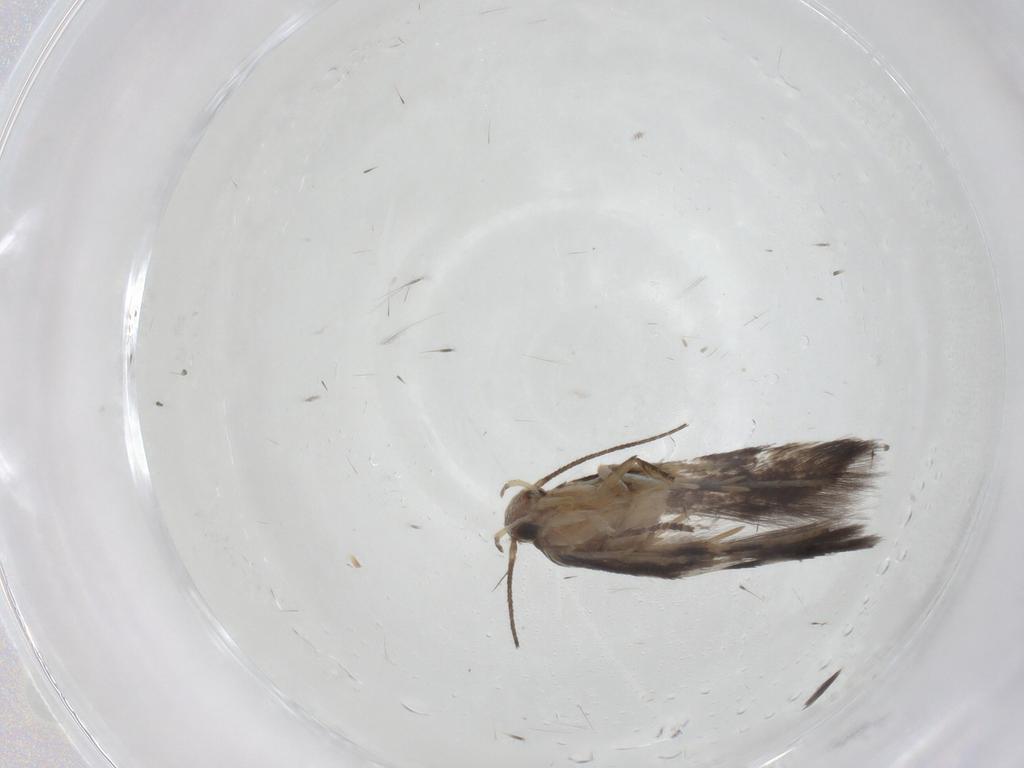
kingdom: Animalia
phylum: Arthropoda
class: Insecta
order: Lepidoptera
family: Gelechiidae
